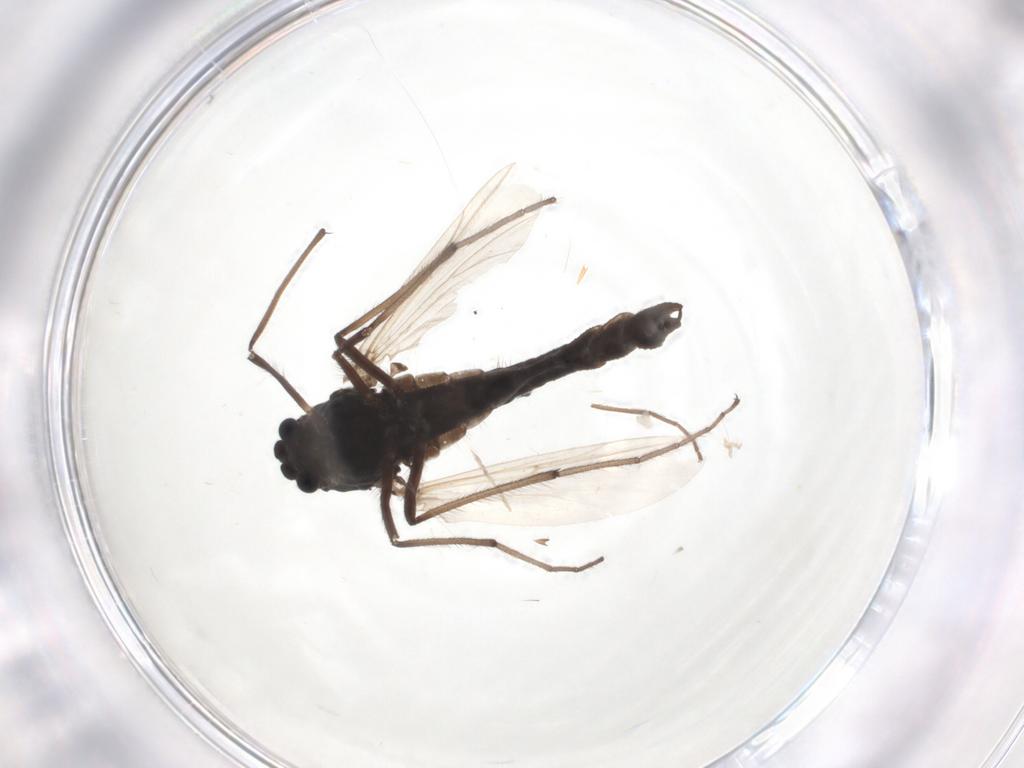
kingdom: Animalia
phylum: Arthropoda
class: Insecta
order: Diptera
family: Chironomidae
